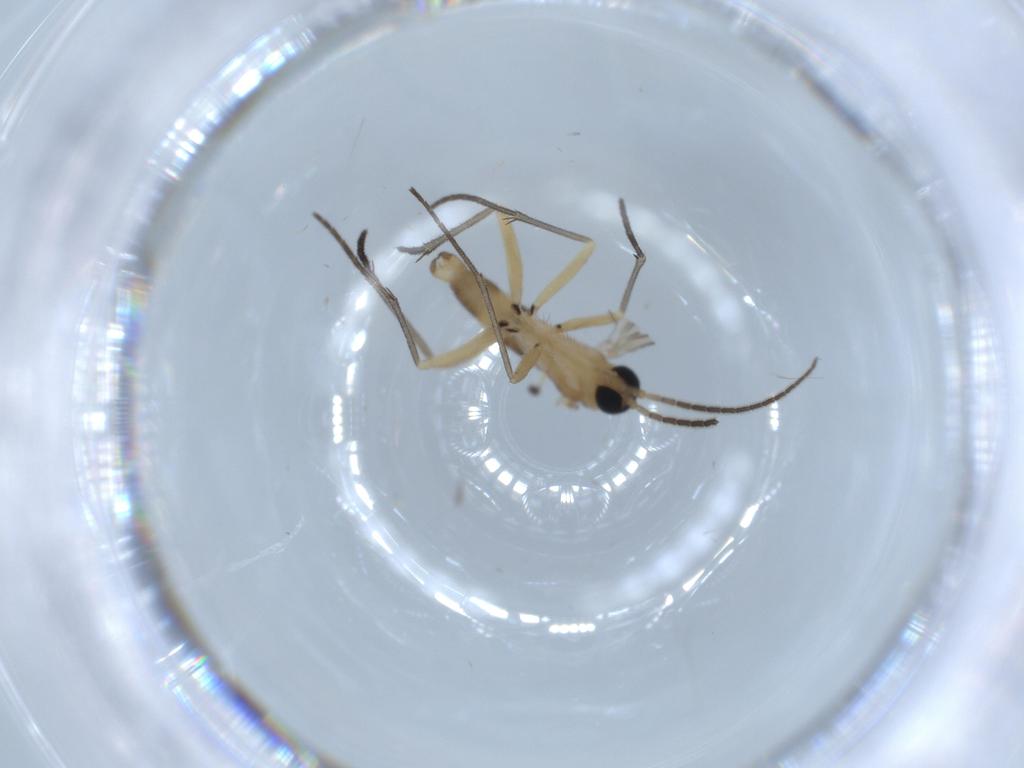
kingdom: Animalia
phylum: Arthropoda
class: Insecta
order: Diptera
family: Sciaridae
